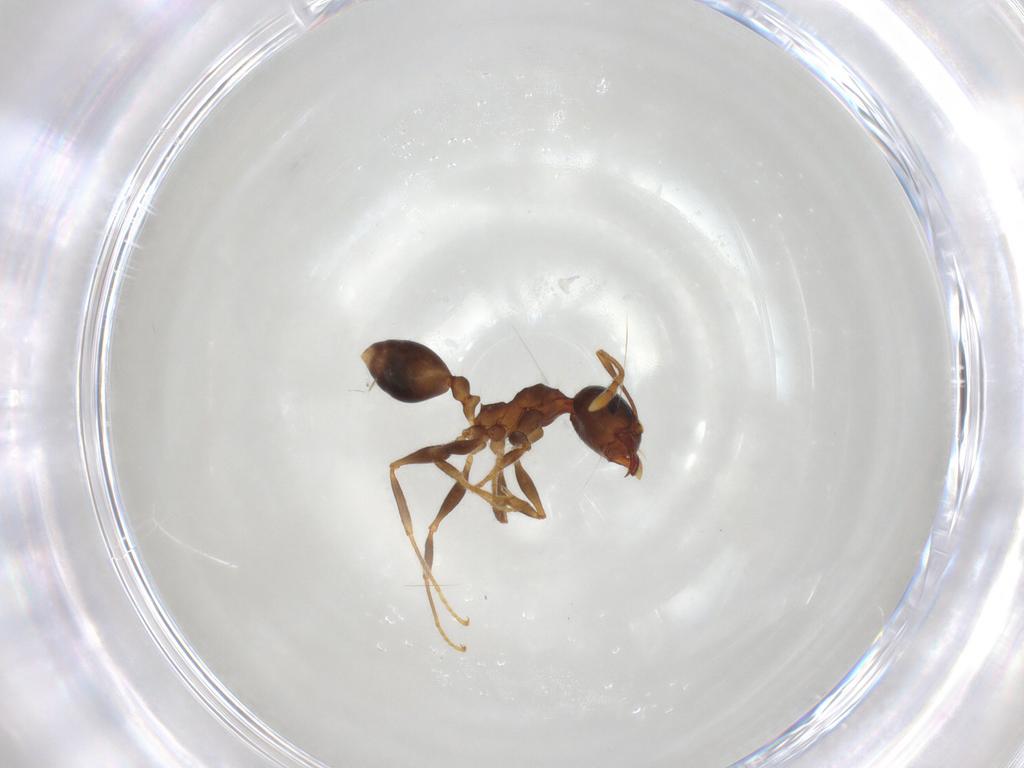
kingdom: Animalia
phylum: Arthropoda
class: Insecta
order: Hymenoptera
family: Formicidae
